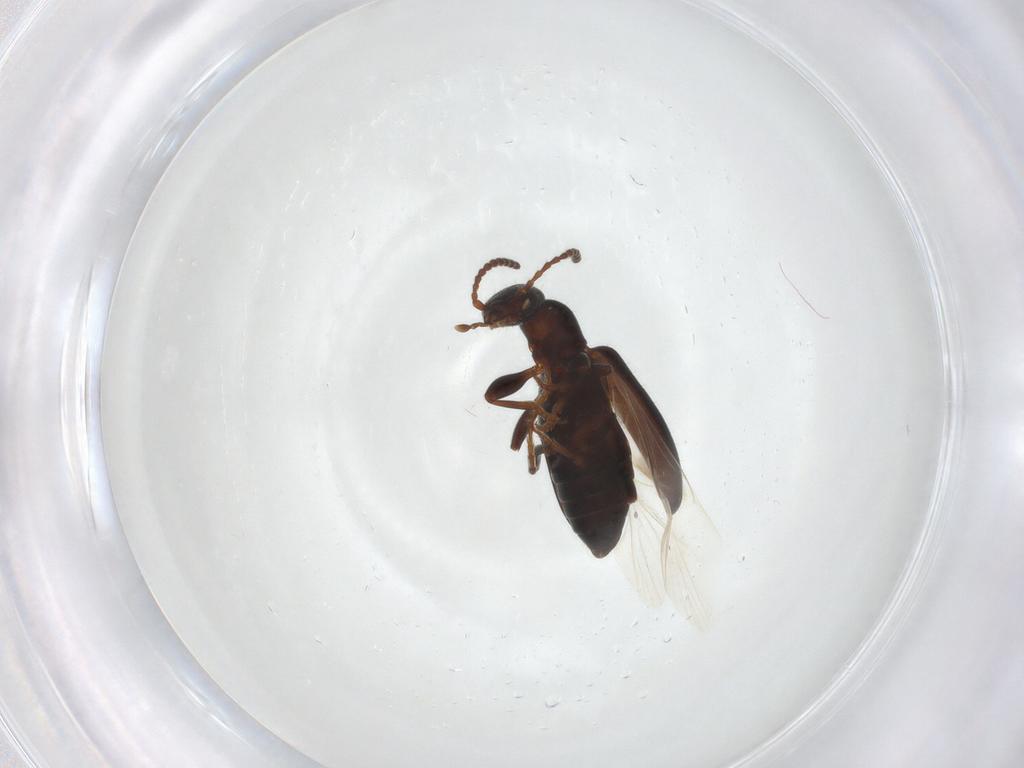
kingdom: Animalia
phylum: Arthropoda
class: Insecta
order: Coleoptera
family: Anthicidae
